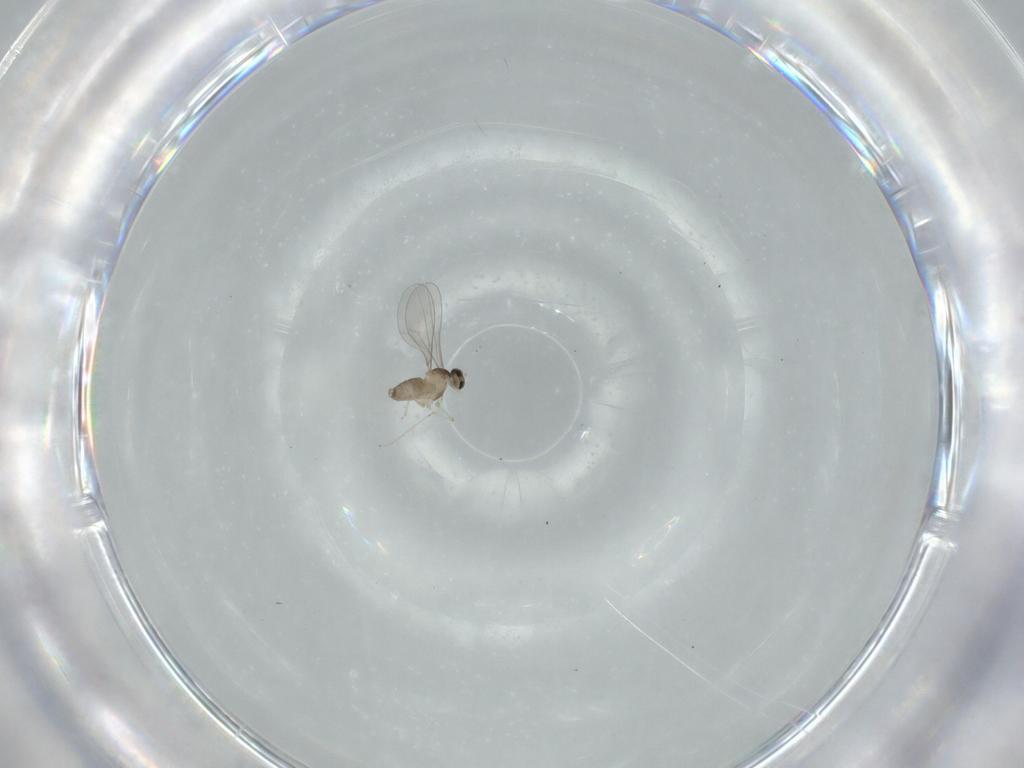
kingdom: Animalia
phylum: Arthropoda
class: Insecta
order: Diptera
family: Cecidomyiidae
